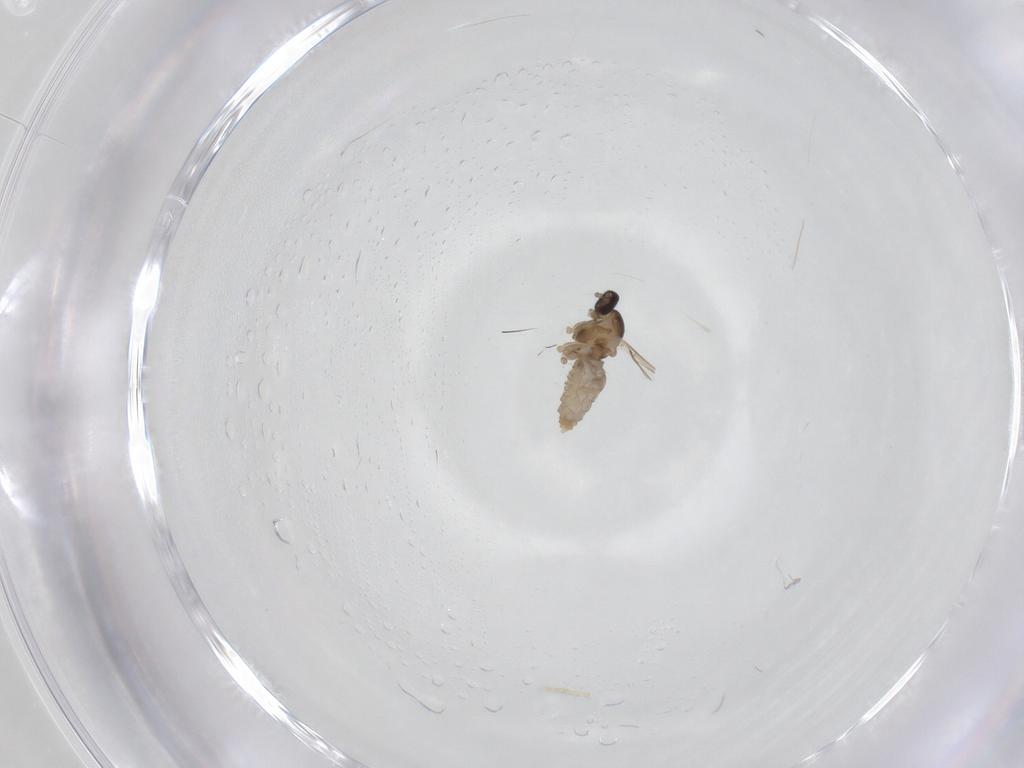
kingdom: Animalia
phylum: Arthropoda
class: Insecta
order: Diptera
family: Cecidomyiidae
